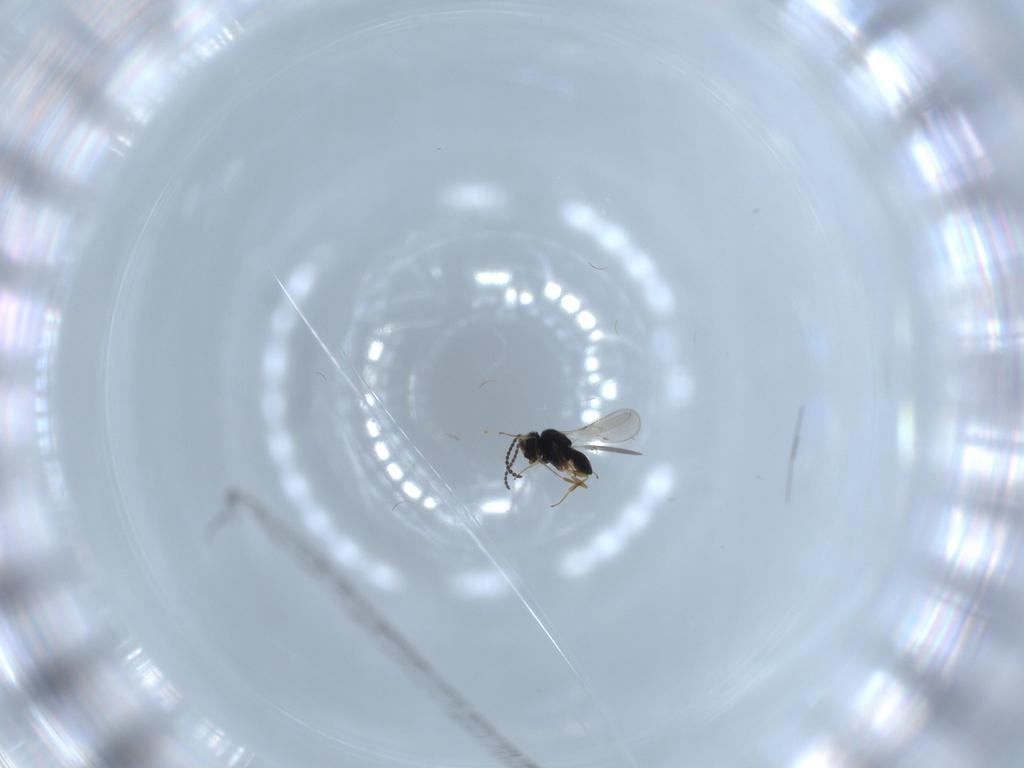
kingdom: Animalia
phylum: Arthropoda
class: Insecta
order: Hymenoptera
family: Scelionidae
